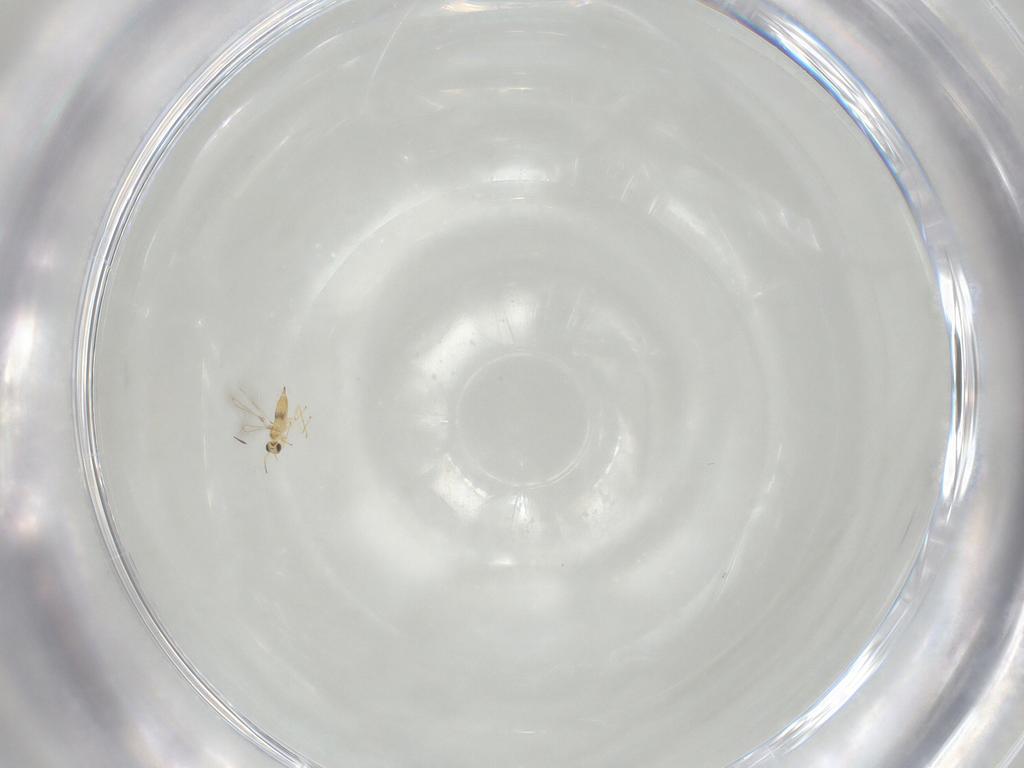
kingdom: Animalia
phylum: Arthropoda
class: Insecta
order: Hymenoptera
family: Mymaridae
